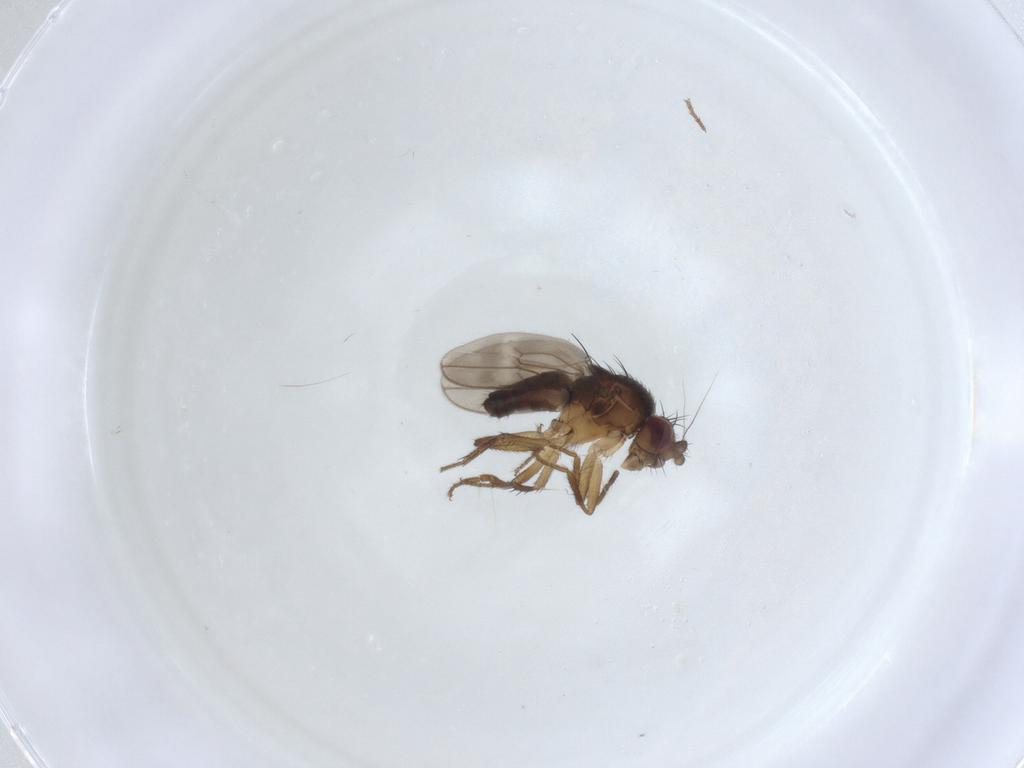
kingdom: Animalia
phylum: Arthropoda
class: Insecta
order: Diptera
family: Sphaeroceridae
